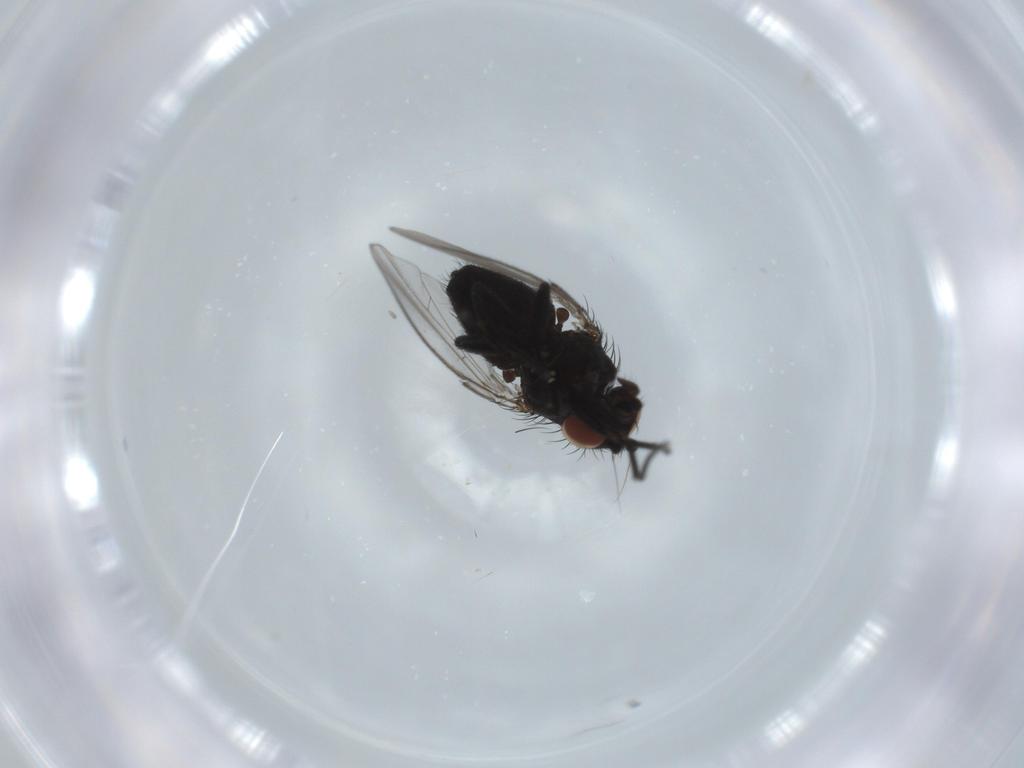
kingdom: Animalia
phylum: Arthropoda
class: Insecta
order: Diptera
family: Milichiidae
